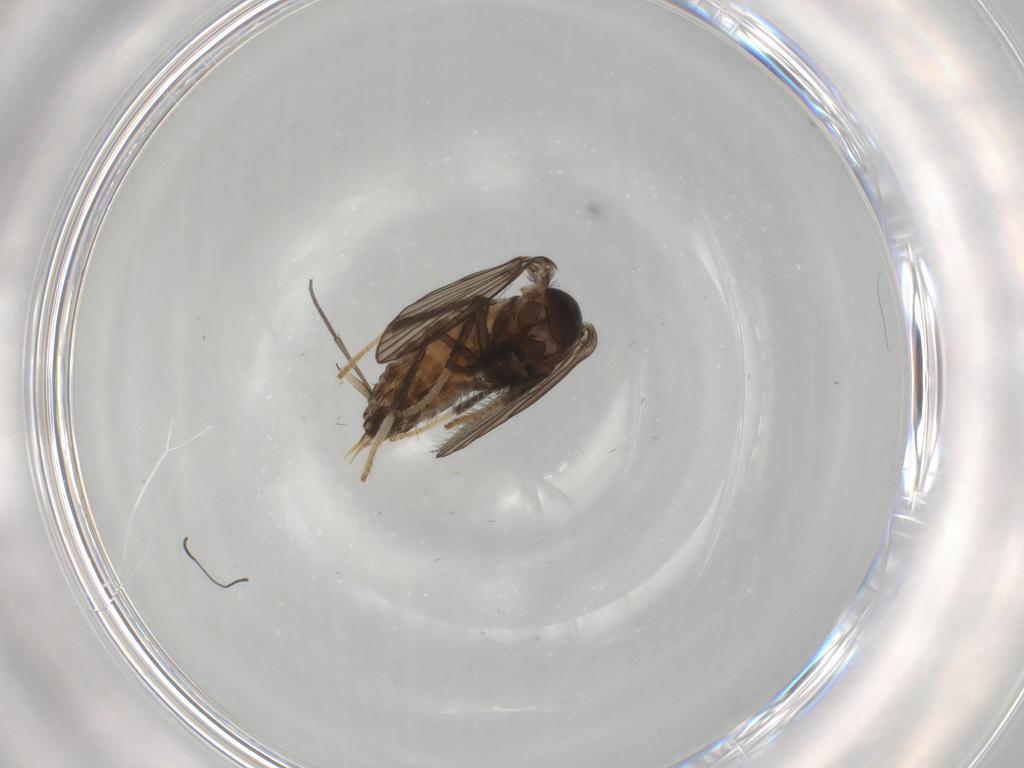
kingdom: Animalia
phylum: Arthropoda
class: Insecta
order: Diptera
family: Psychodidae
